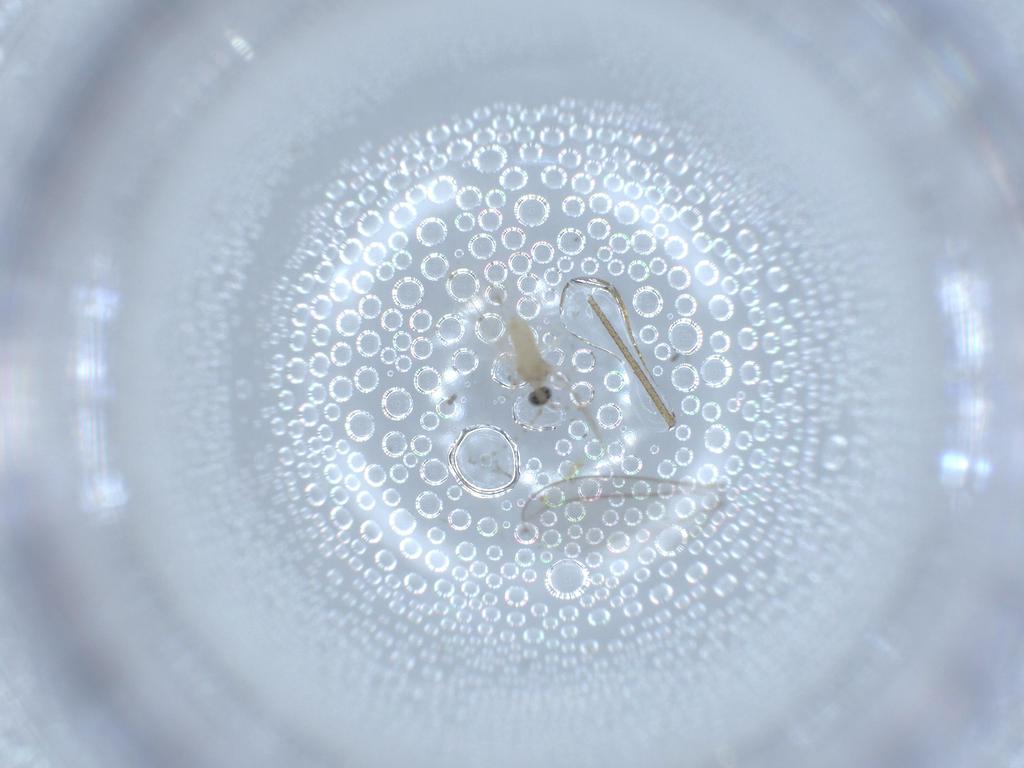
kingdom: Animalia
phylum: Arthropoda
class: Insecta
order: Diptera
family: Cecidomyiidae
